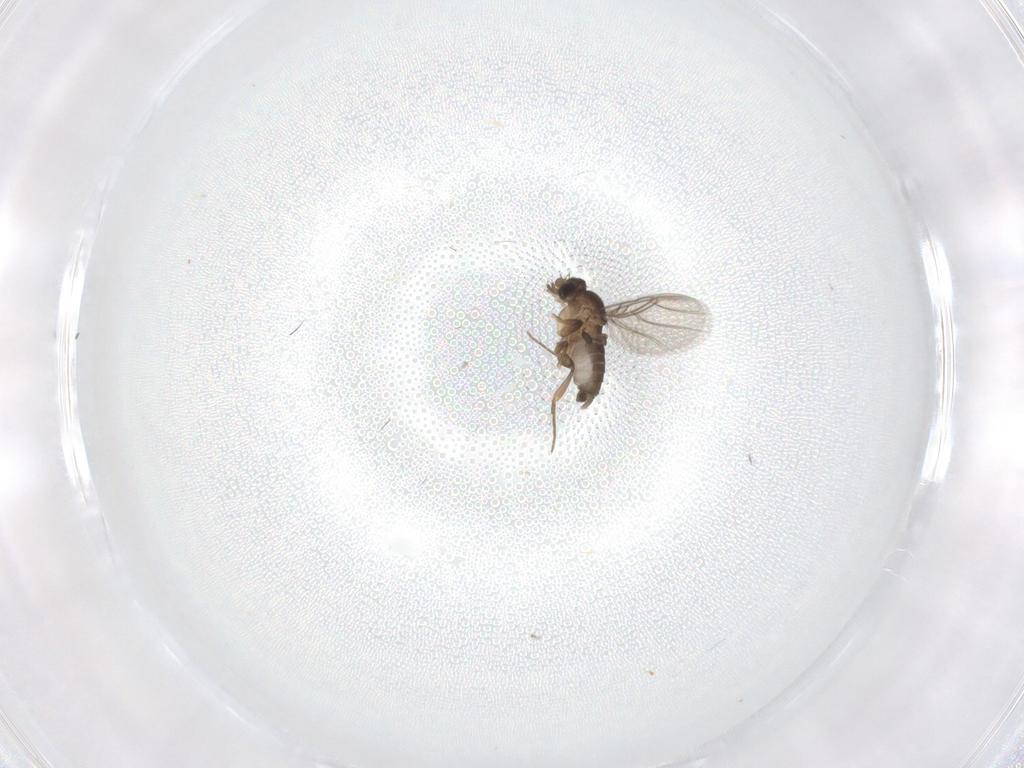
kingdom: Animalia
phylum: Arthropoda
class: Insecta
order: Diptera
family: Phoridae
